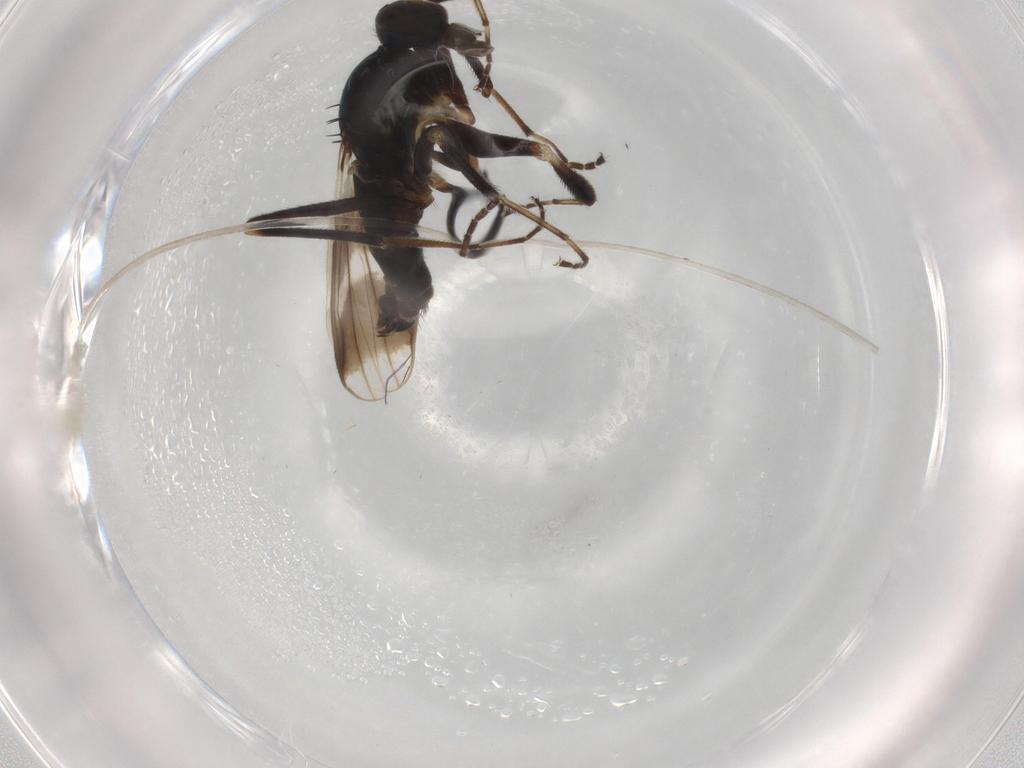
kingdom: Animalia
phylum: Arthropoda
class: Insecta
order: Diptera
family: Hybotidae
